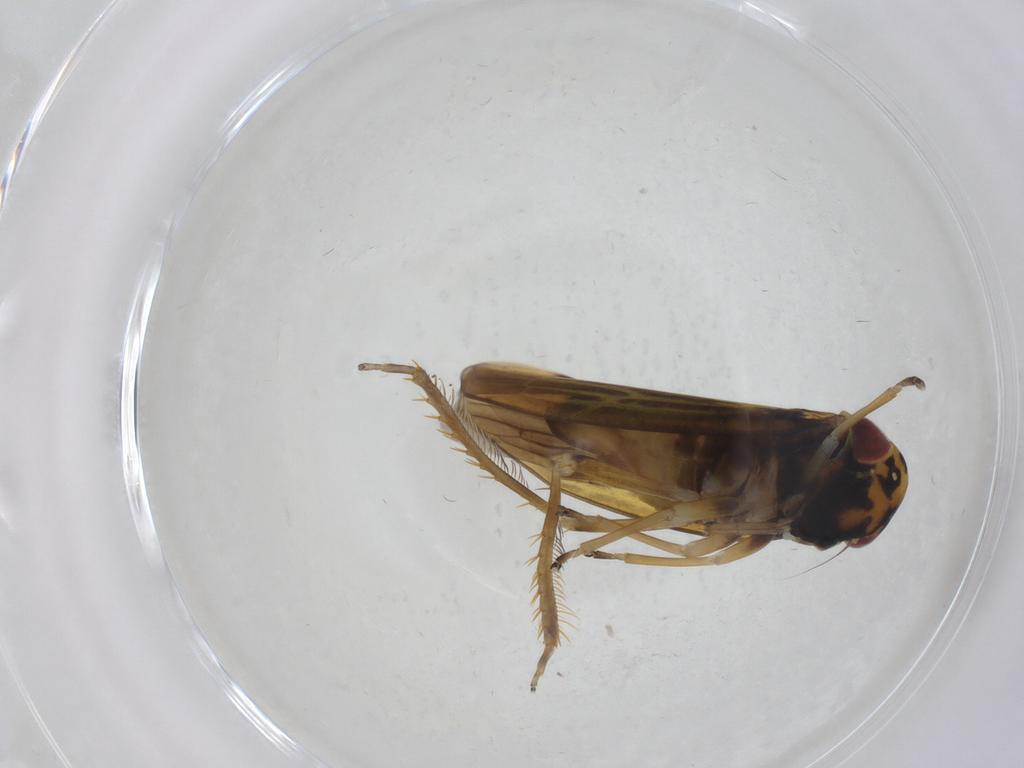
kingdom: Animalia
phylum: Arthropoda
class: Insecta
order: Hemiptera
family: Cicadellidae
